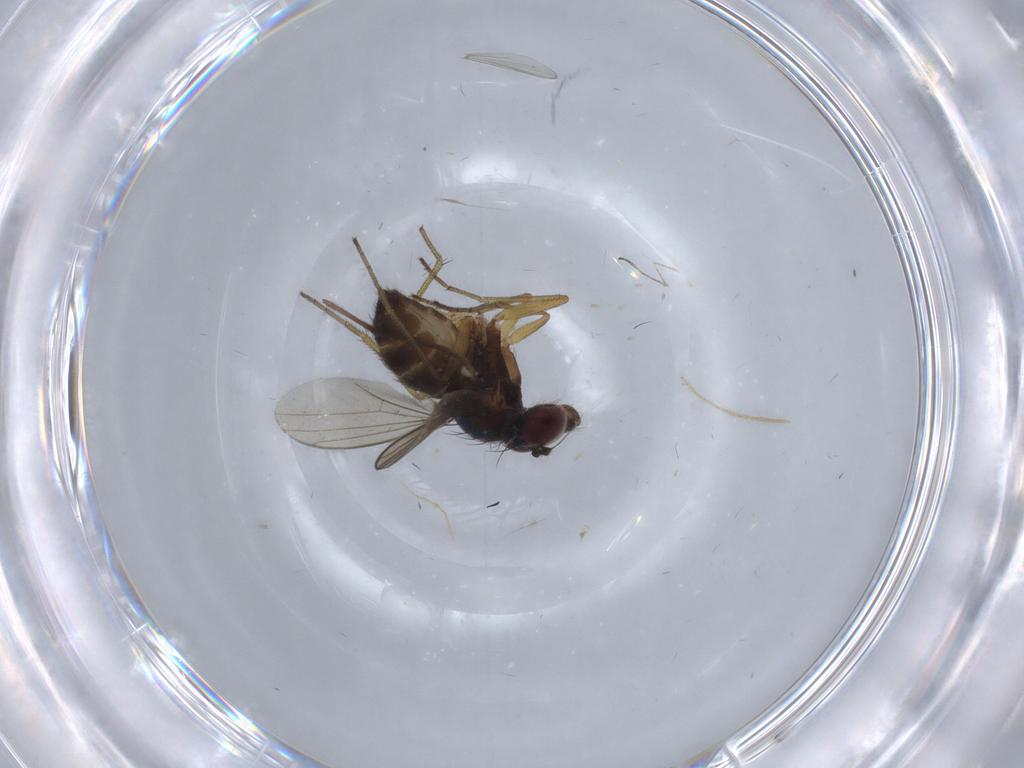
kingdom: Animalia
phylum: Arthropoda
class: Insecta
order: Diptera
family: Dolichopodidae
